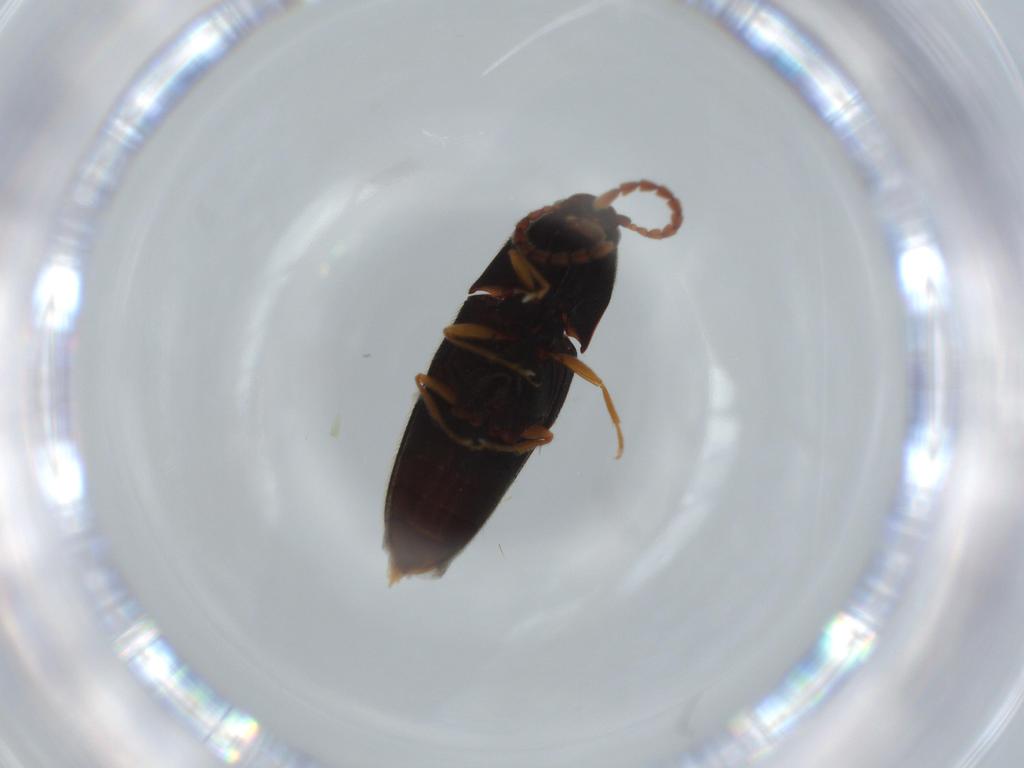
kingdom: Animalia
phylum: Arthropoda
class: Insecta
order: Coleoptera
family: Elateridae
